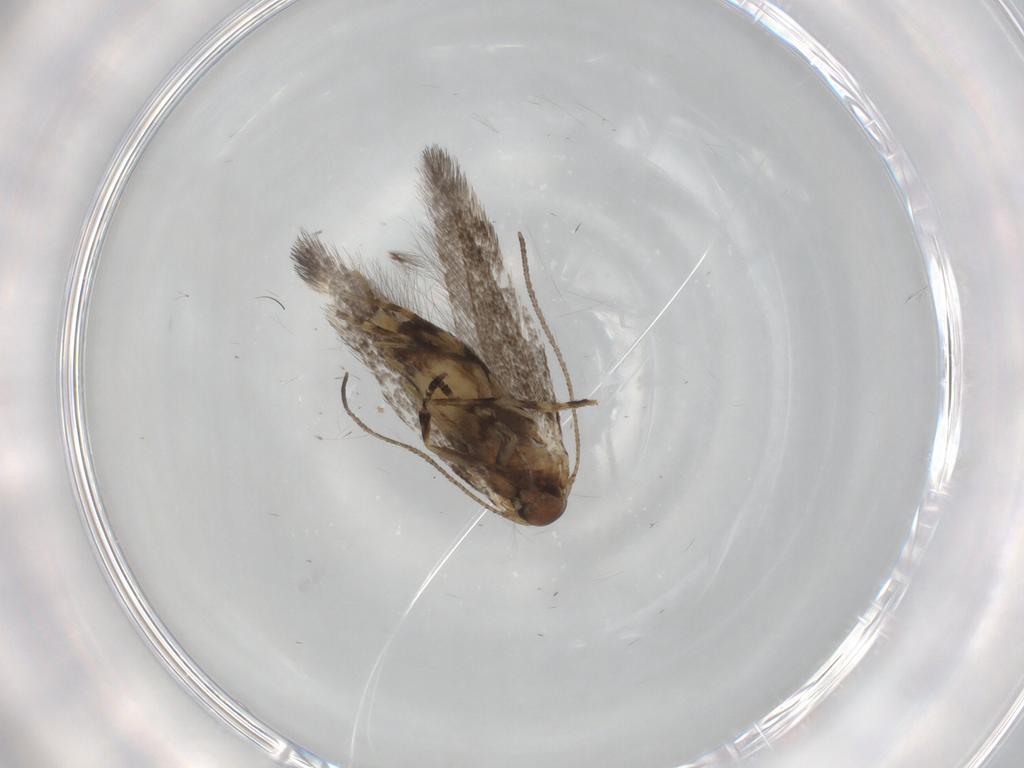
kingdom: Animalia
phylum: Arthropoda
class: Insecta
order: Lepidoptera
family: Elachistidae
